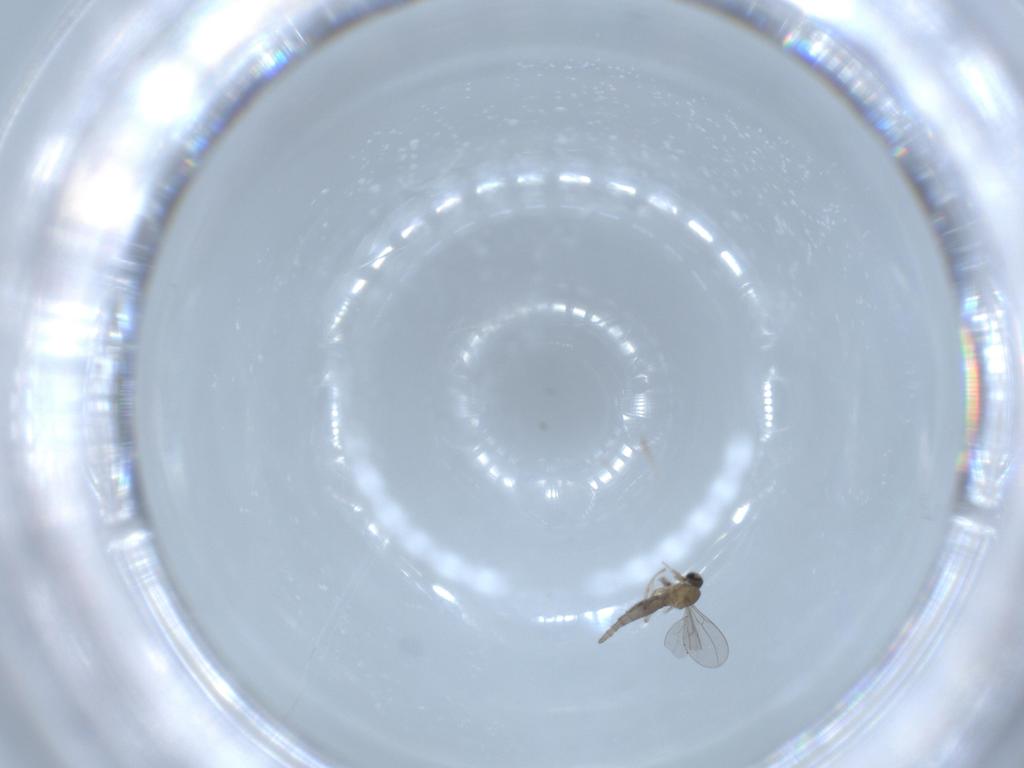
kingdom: Animalia
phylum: Arthropoda
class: Insecta
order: Diptera
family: Cecidomyiidae
